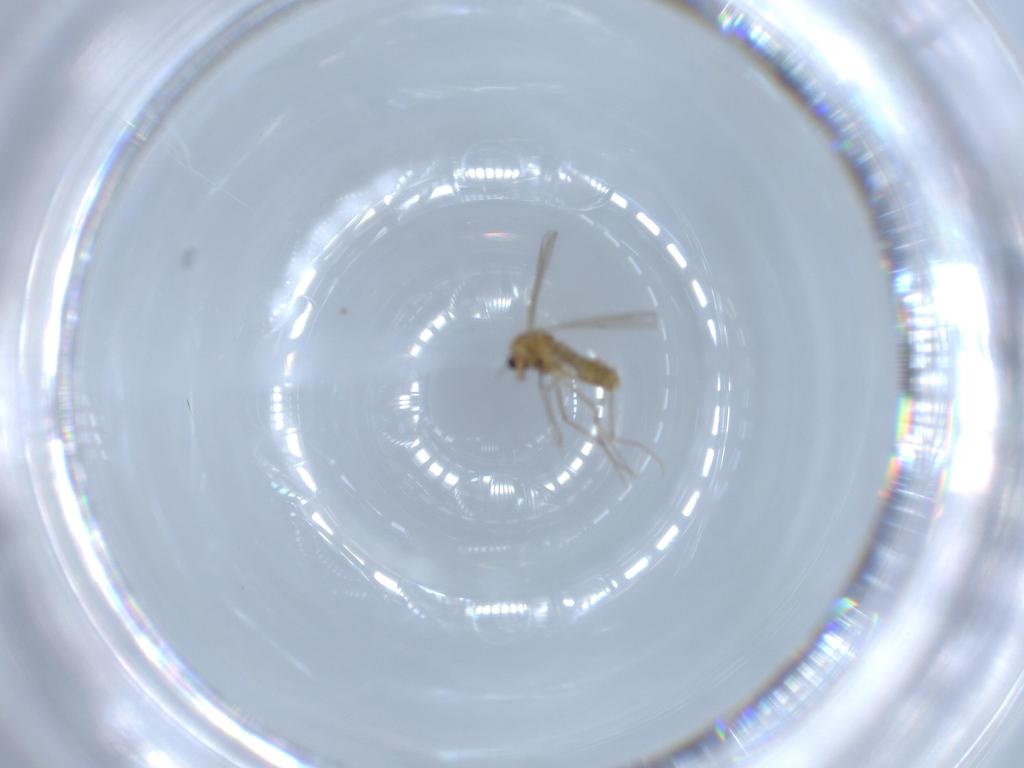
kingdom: Animalia
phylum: Arthropoda
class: Insecta
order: Diptera
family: Chironomidae
